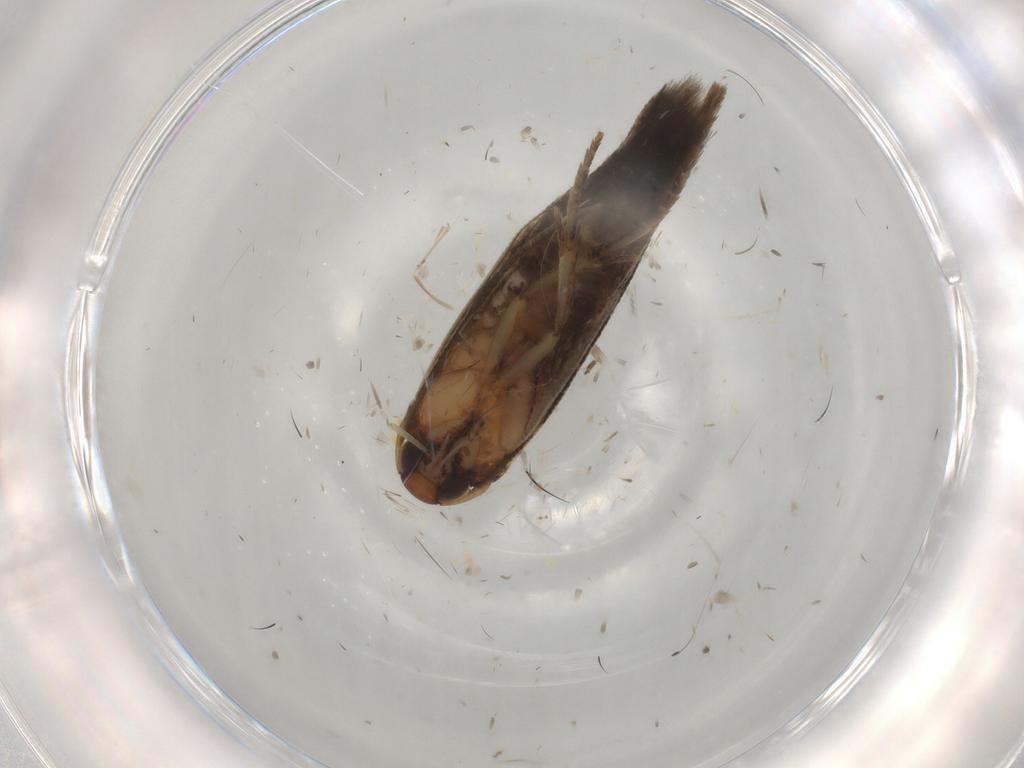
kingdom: Animalia
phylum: Arthropoda
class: Insecta
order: Lepidoptera
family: Cosmopterigidae
